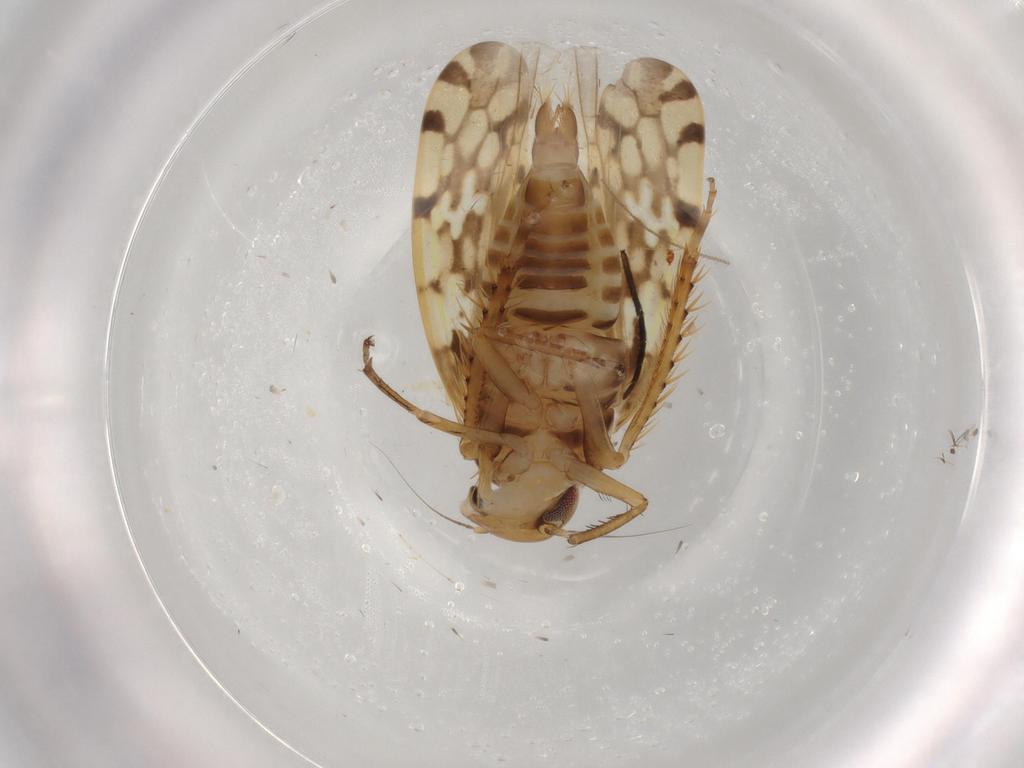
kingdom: Animalia
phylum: Arthropoda
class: Insecta
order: Hemiptera
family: Cicadellidae
